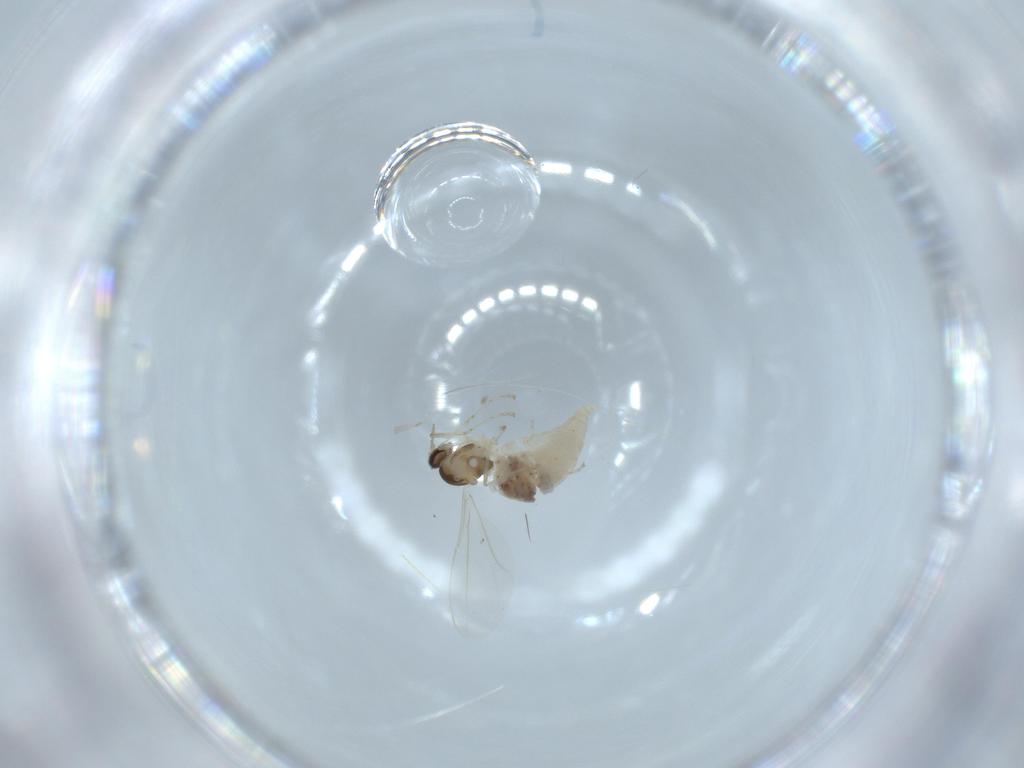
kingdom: Animalia
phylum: Arthropoda
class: Insecta
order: Diptera
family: Cecidomyiidae
